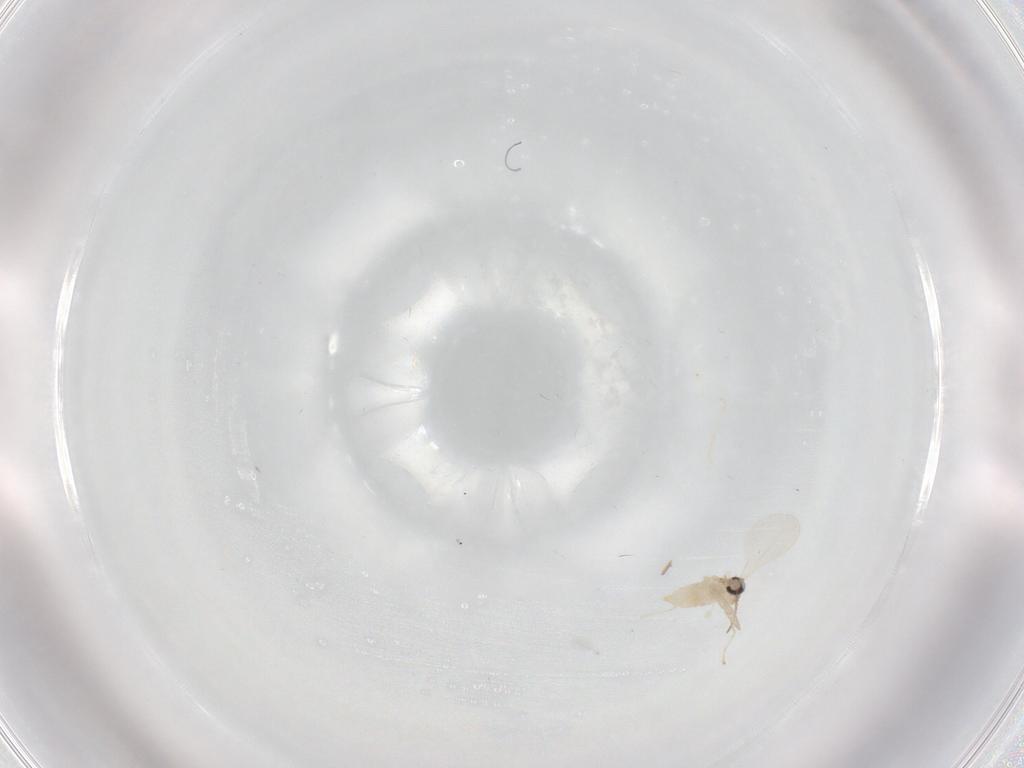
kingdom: Animalia
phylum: Arthropoda
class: Insecta
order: Diptera
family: Cecidomyiidae
